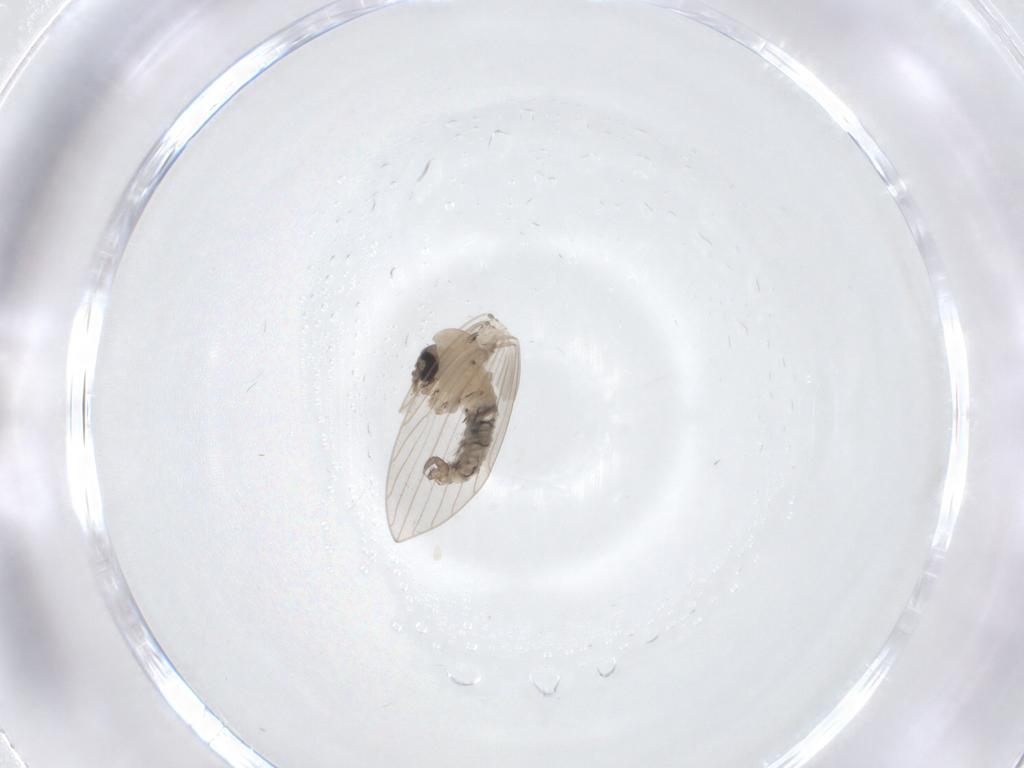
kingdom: Animalia
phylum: Arthropoda
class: Insecta
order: Diptera
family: Psychodidae
